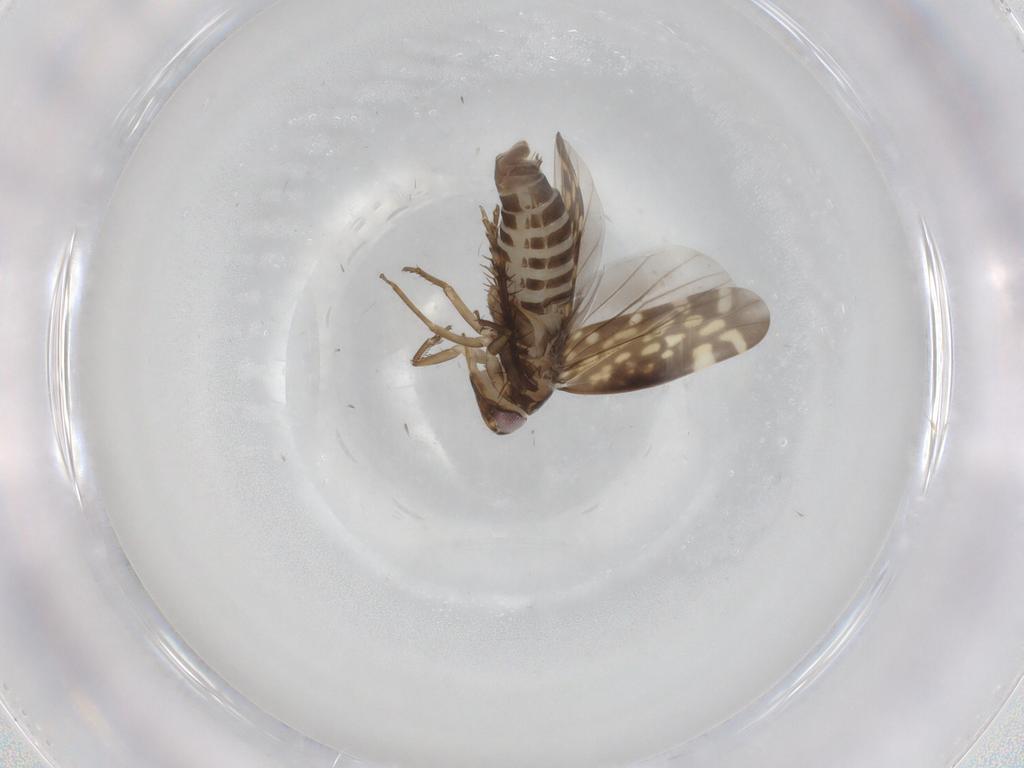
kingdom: Animalia
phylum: Arthropoda
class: Insecta
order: Hemiptera
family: Cicadellidae
